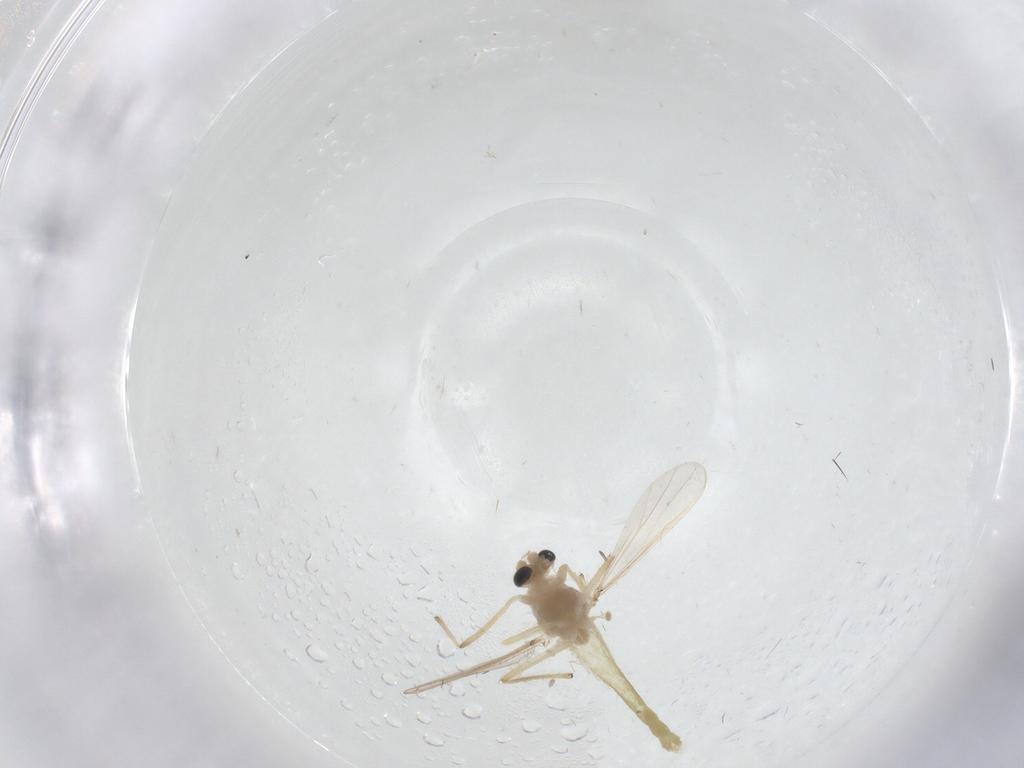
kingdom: Animalia
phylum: Arthropoda
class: Insecta
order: Diptera
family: Chironomidae
